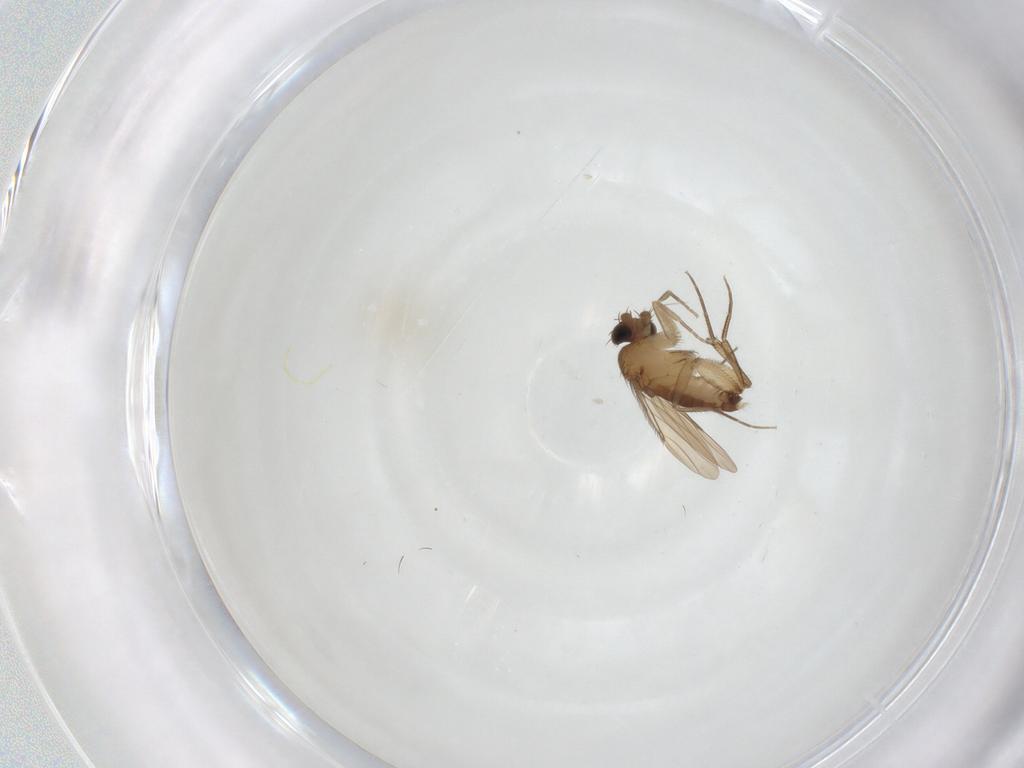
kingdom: Animalia
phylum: Arthropoda
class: Insecta
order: Diptera
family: Phoridae
